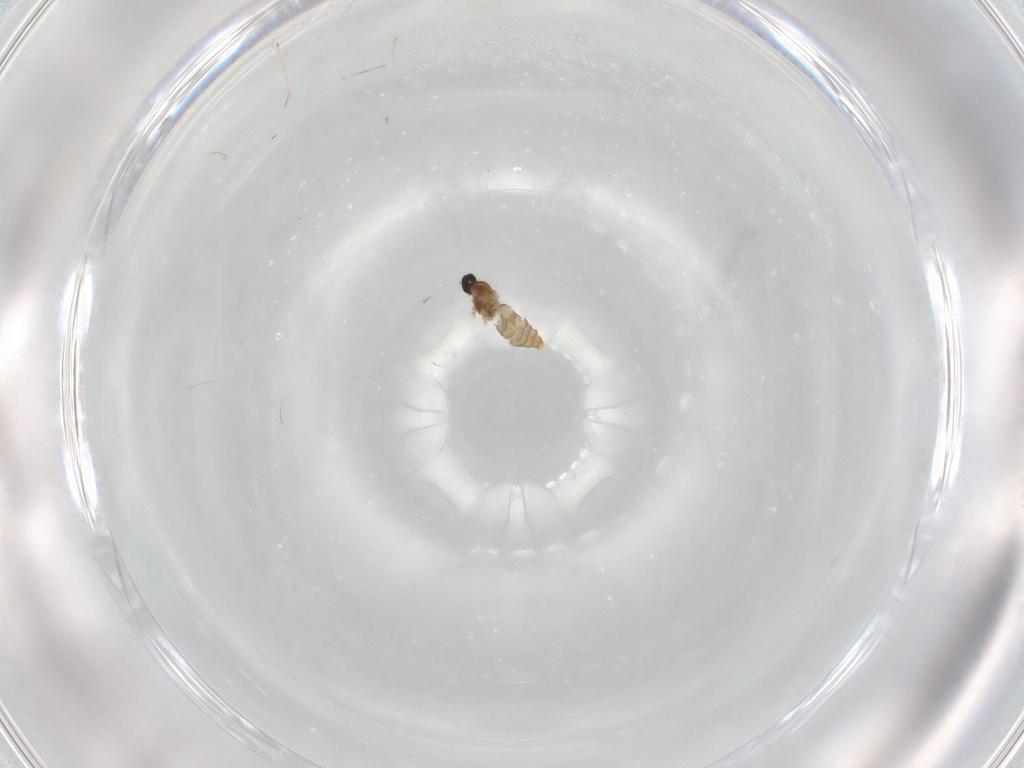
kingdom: Animalia
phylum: Arthropoda
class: Insecta
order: Diptera
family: Cecidomyiidae
